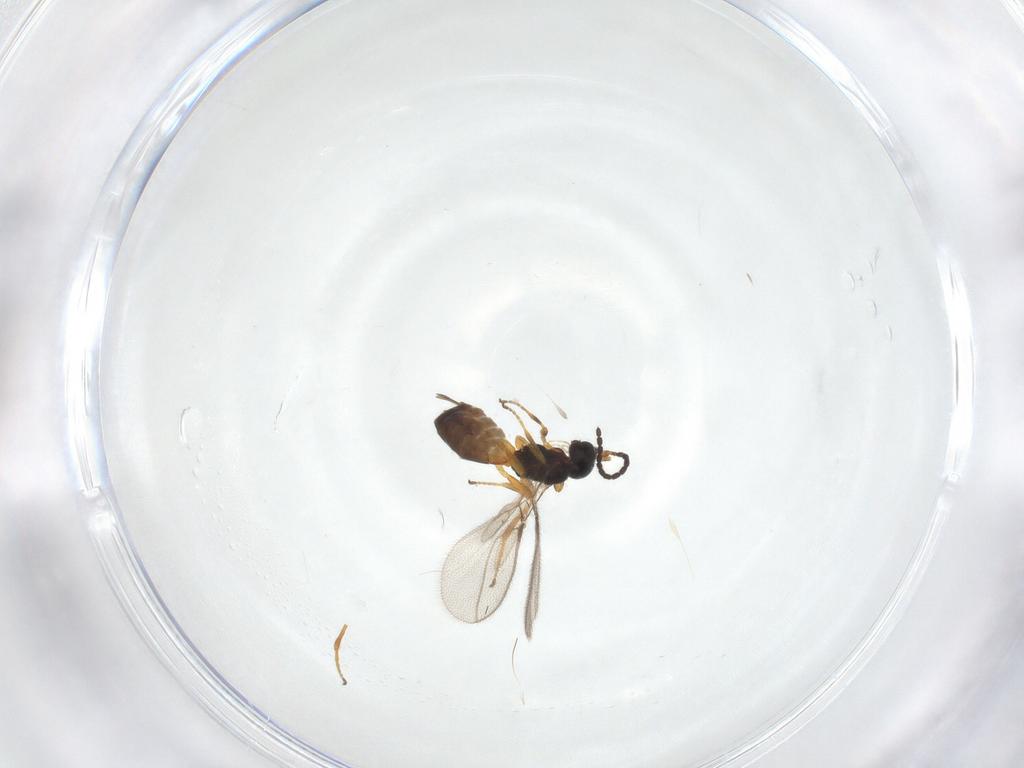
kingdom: Animalia
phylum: Arthropoda
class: Insecta
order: Hymenoptera
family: Braconidae
